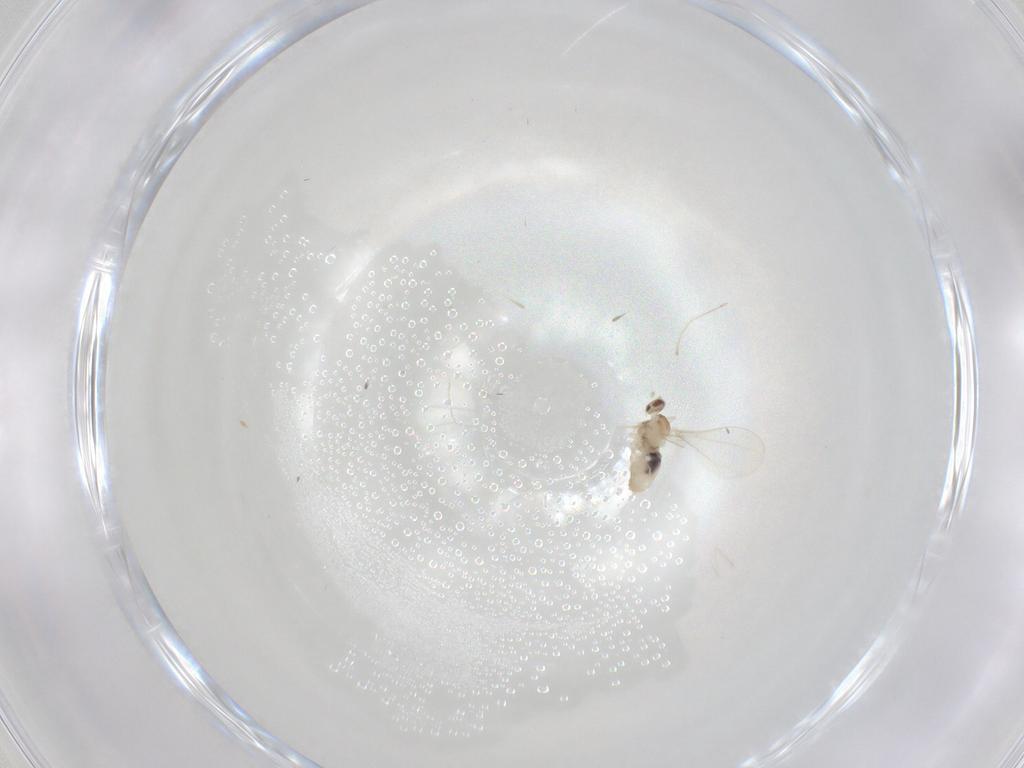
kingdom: Animalia
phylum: Arthropoda
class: Insecta
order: Diptera
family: Cecidomyiidae
